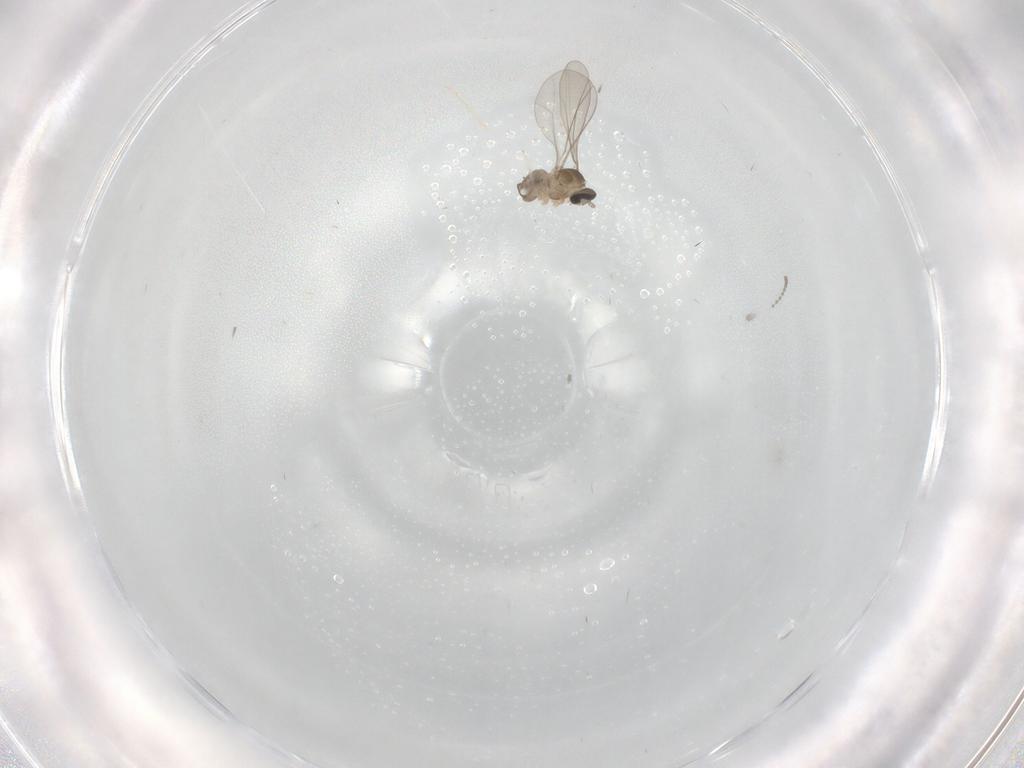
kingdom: Animalia
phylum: Arthropoda
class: Insecta
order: Diptera
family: Cecidomyiidae
